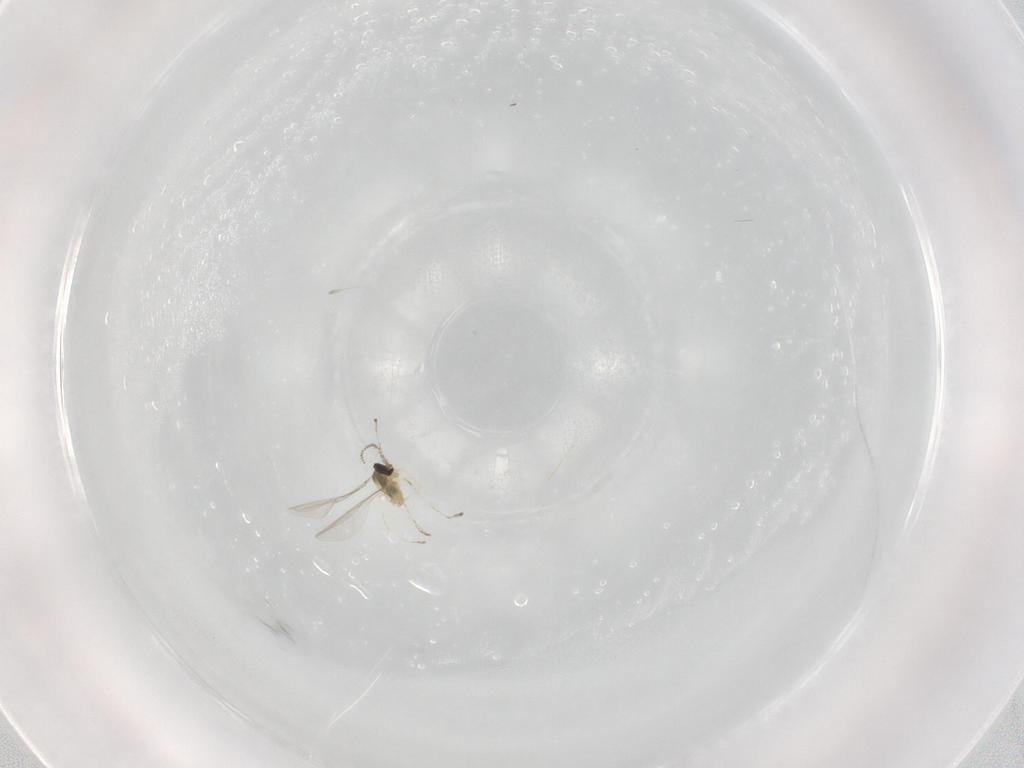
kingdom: Animalia
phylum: Arthropoda
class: Insecta
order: Diptera
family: Cecidomyiidae
